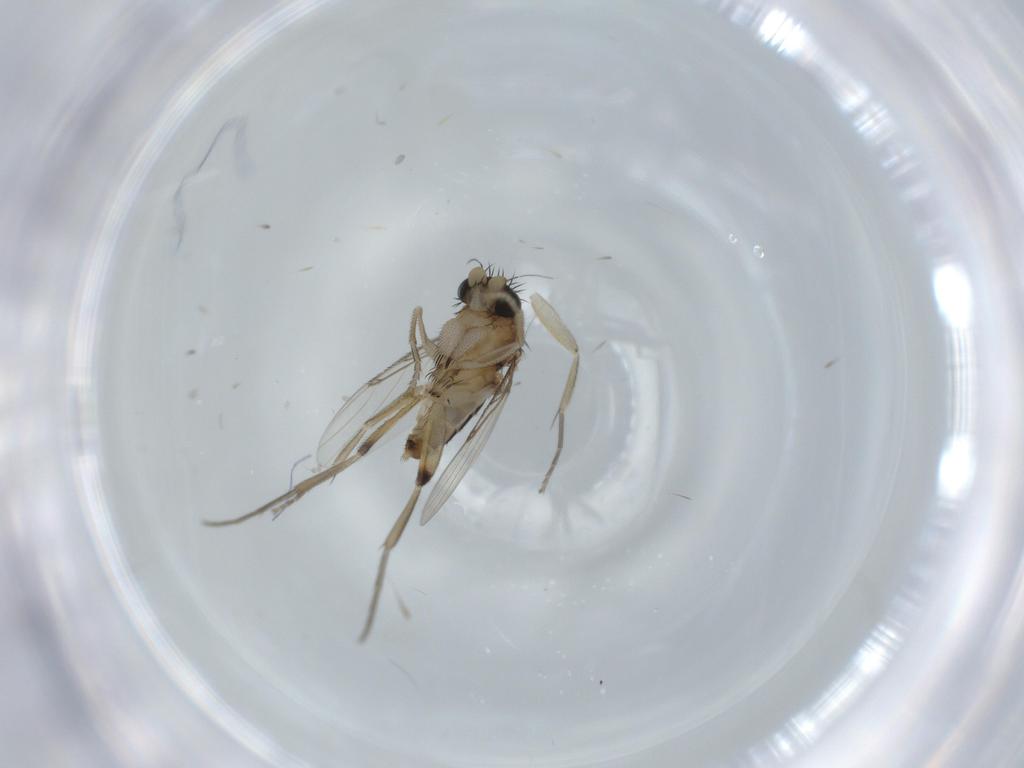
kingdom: Animalia
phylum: Arthropoda
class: Insecta
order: Diptera
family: Phoridae
